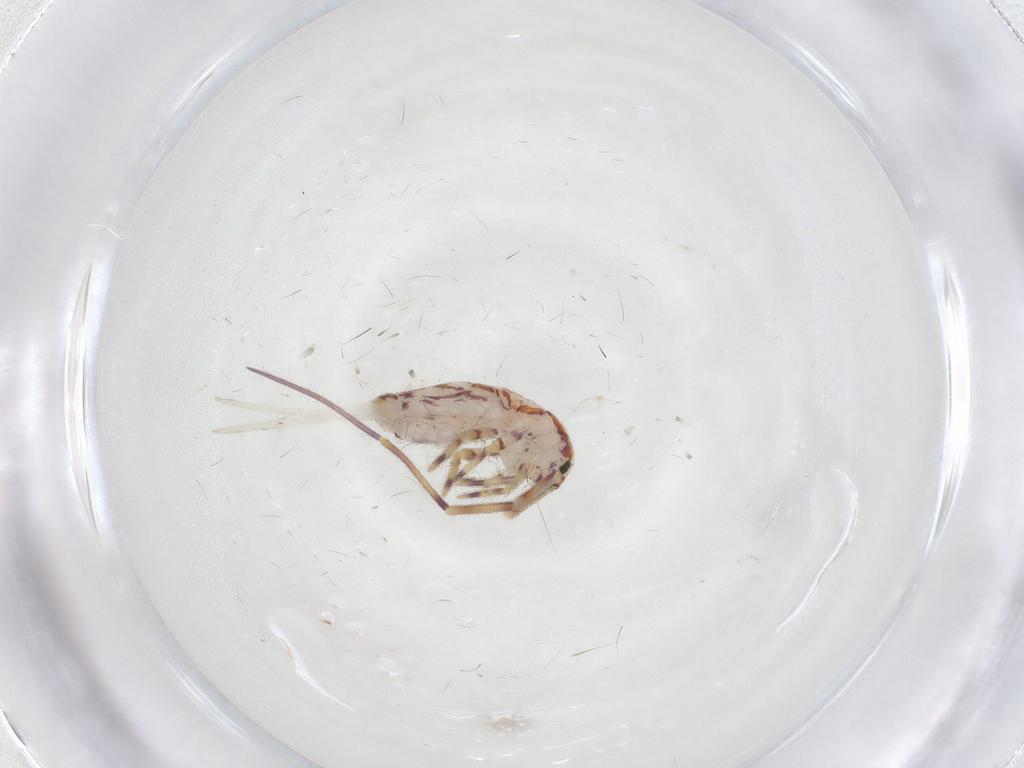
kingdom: Animalia
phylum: Arthropoda
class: Collembola
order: Entomobryomorpha
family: Entomobryidae
